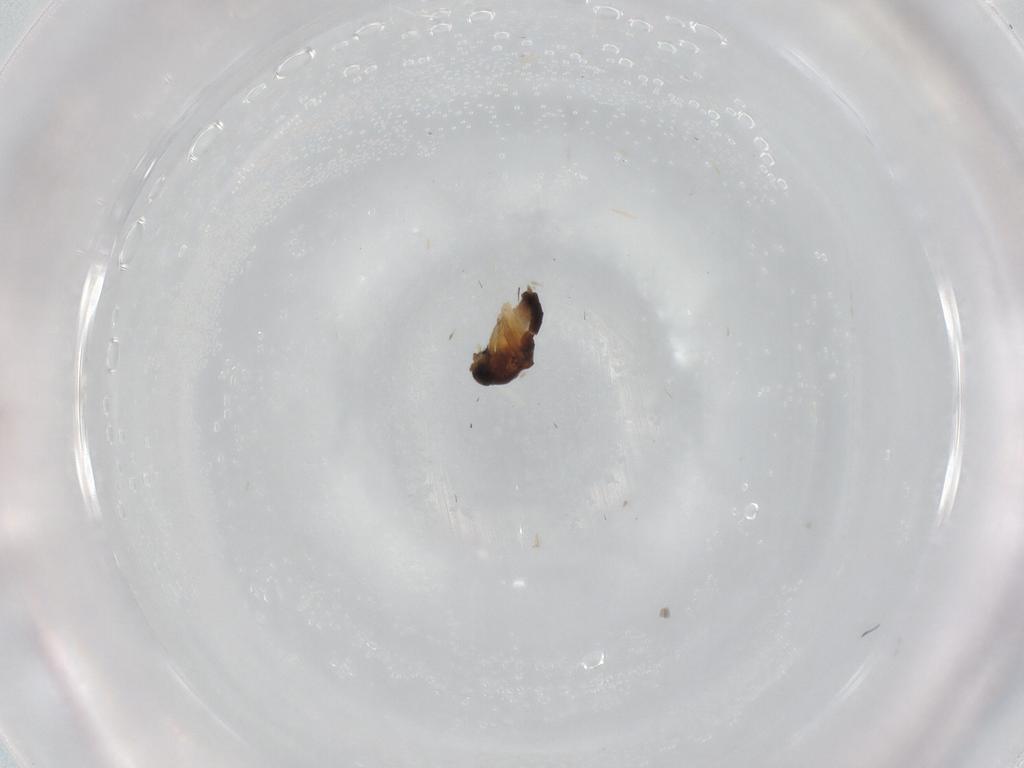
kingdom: Animalia
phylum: Arthropoda
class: Insecta
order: Diptera
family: Phoridae
